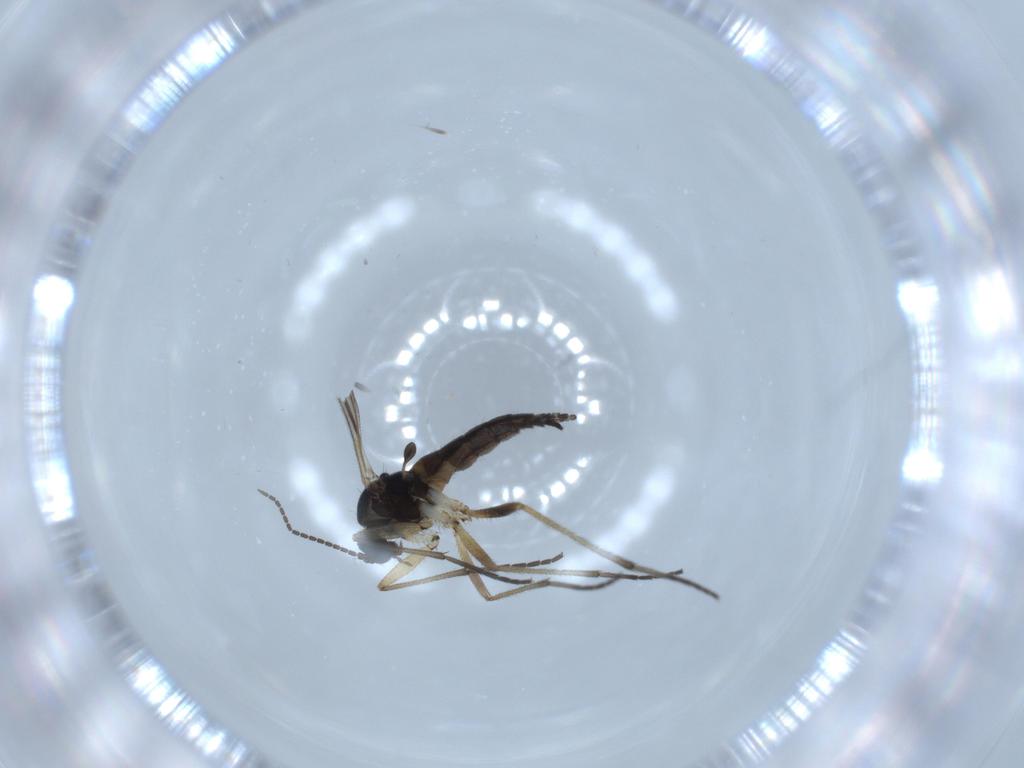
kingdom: Animalia
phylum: Arthropoda
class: Insecta
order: Diptera
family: Sciaridae
